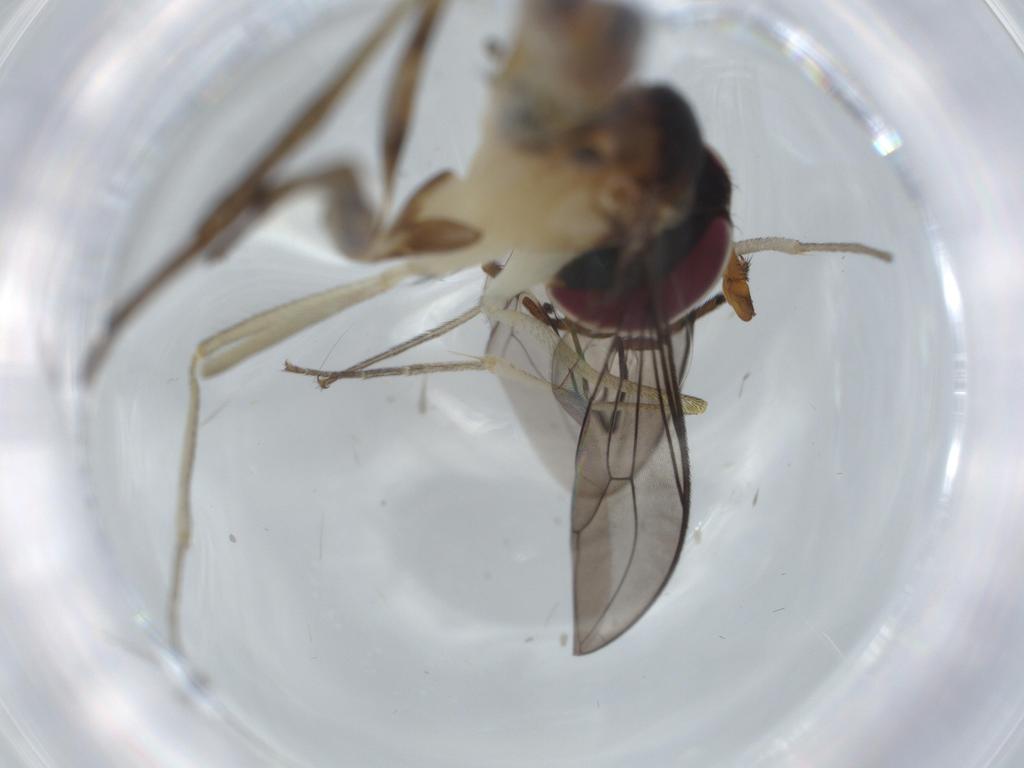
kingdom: Animalia
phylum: Arthropoda
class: Insecta
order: Diptera
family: Conopidae
